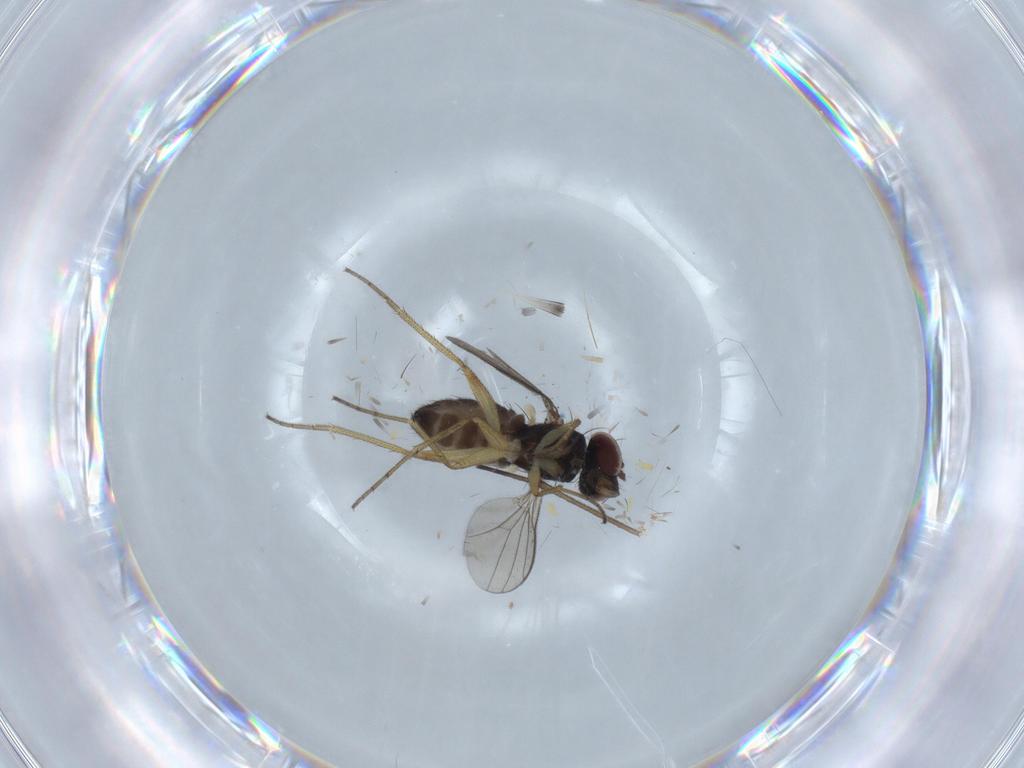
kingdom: Animalia
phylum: Arthropoda
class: Insecta
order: Diptera
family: Dolichopodidae
